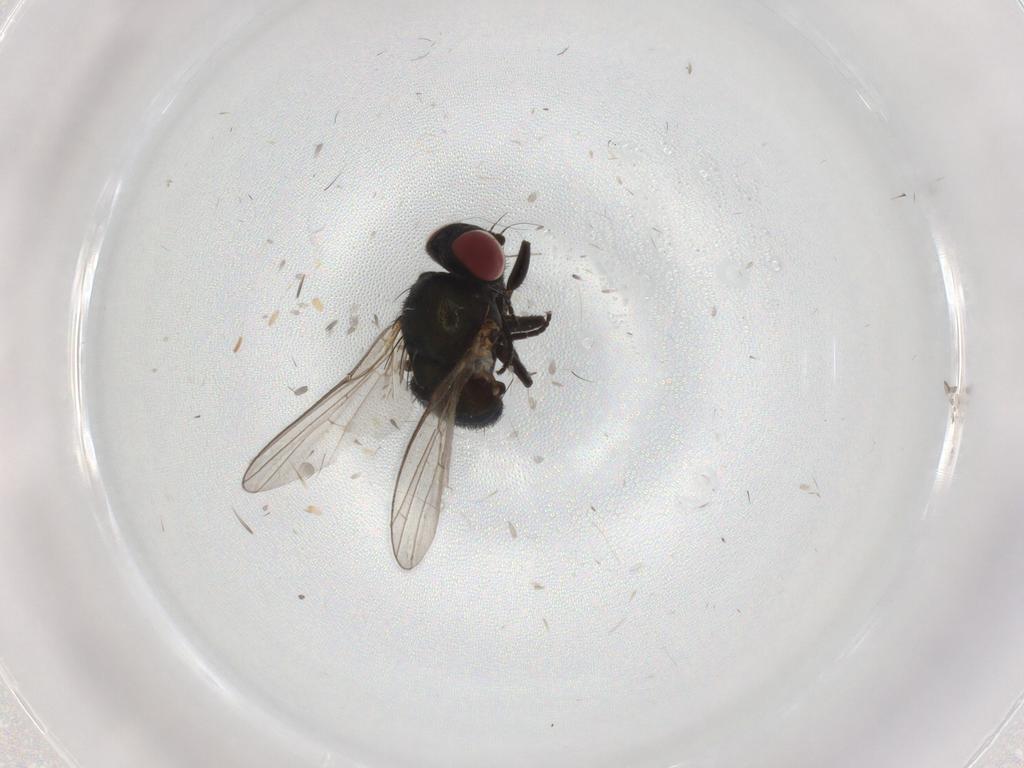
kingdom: Animalia
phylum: Arthropoda
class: Insecta
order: Diptera
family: Agromyzidae
